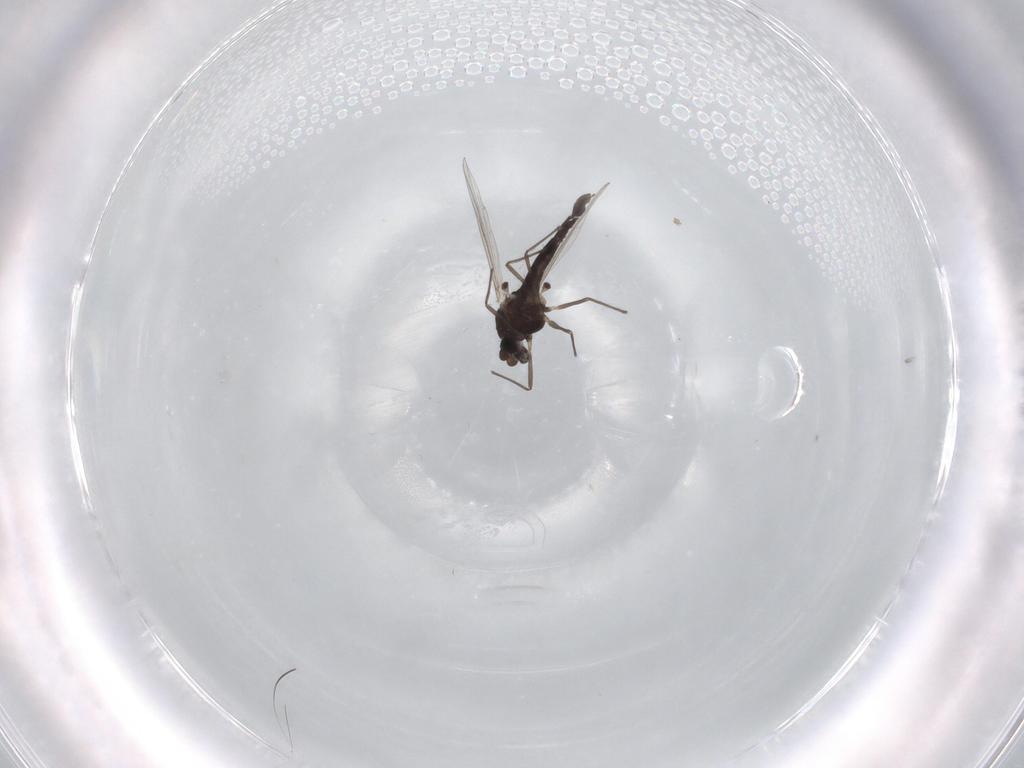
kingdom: Animalia
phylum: Arthropoda
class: Insecta
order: Diptera
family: Chironomidae
